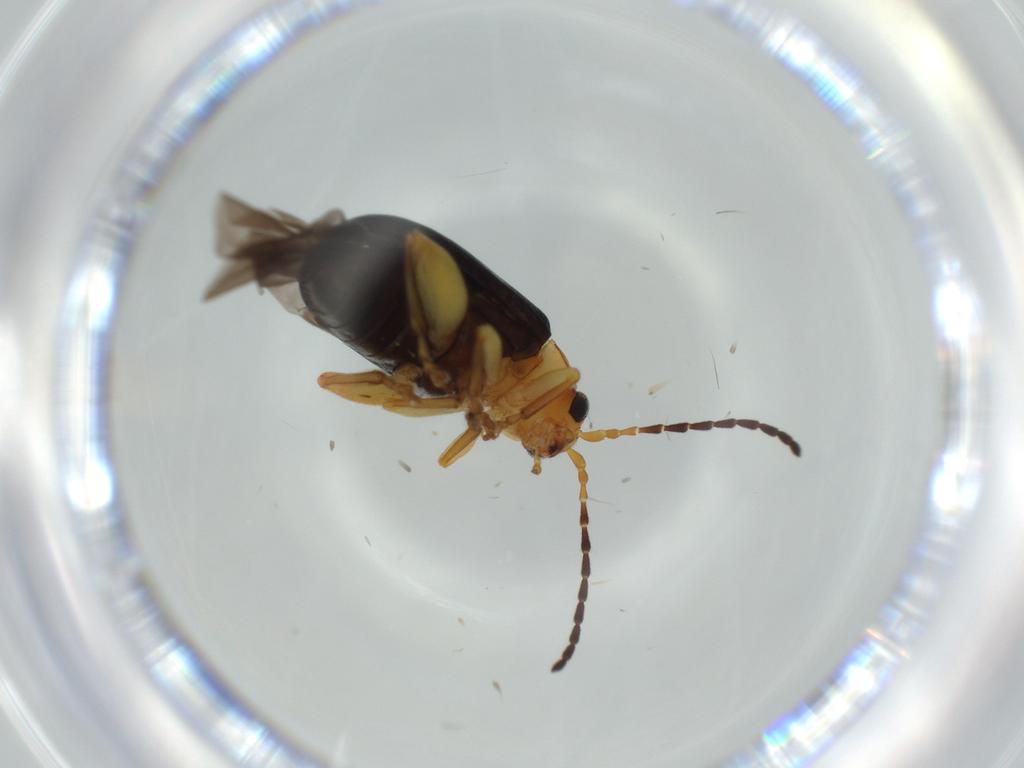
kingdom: Animalia
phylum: Arthropoda
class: Insecta
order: Coleoptera
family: Chrysomelidae
